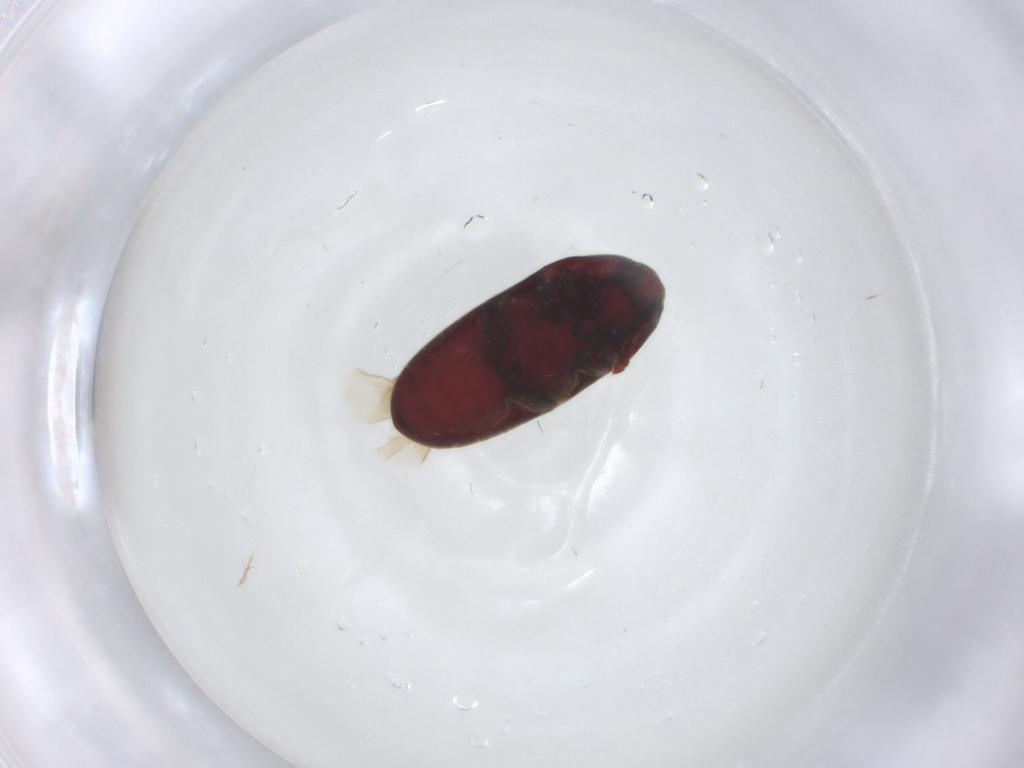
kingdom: Animalia
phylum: Arthropoda
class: Insecta
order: Coleoptera
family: Throscidae
